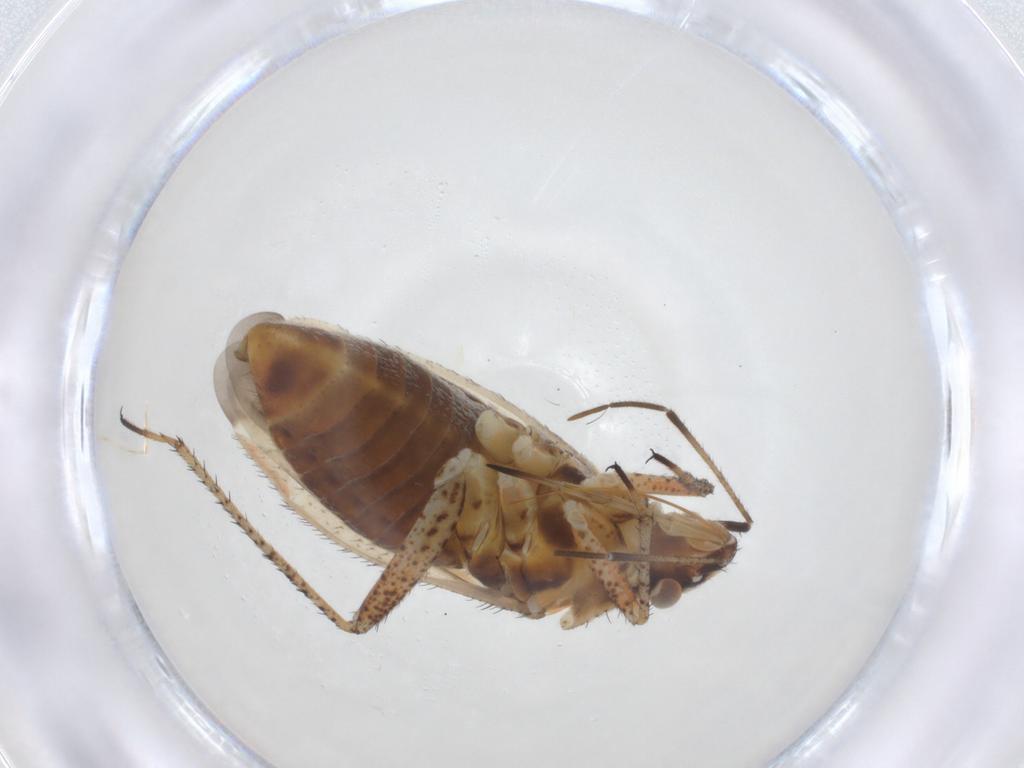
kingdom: Animalia
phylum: Arthropoda
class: Insecta
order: Hemiptera
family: Miridae
